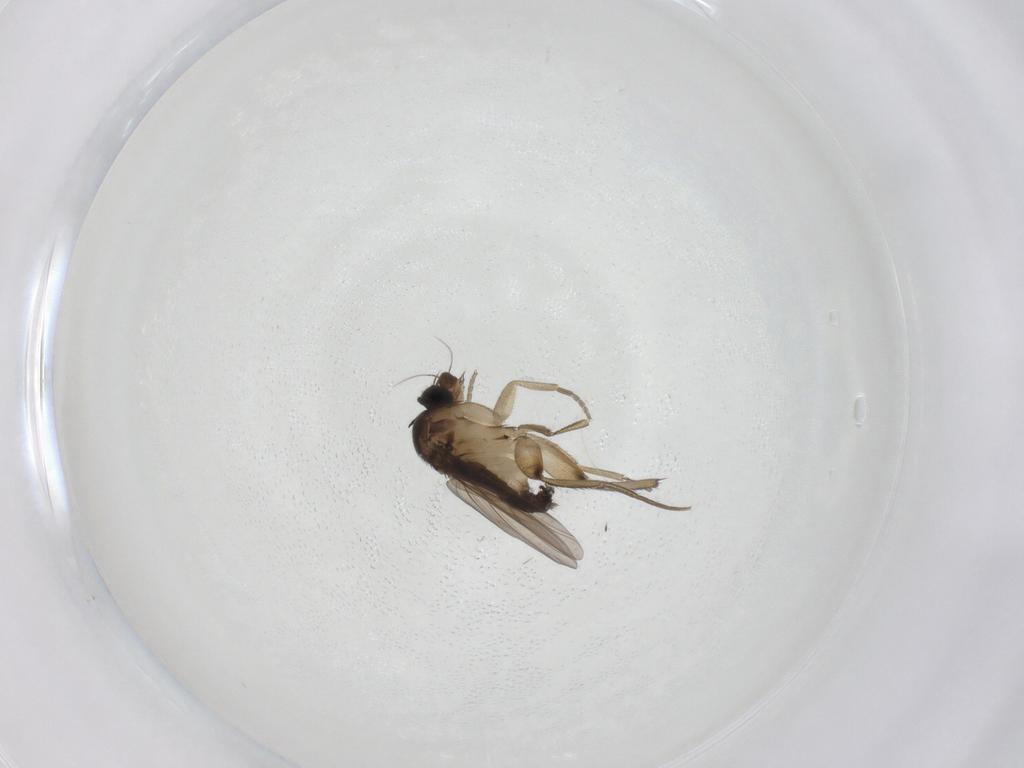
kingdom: Animalia
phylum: Arthropoda
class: Insecta
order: Diptera
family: Phoridae
